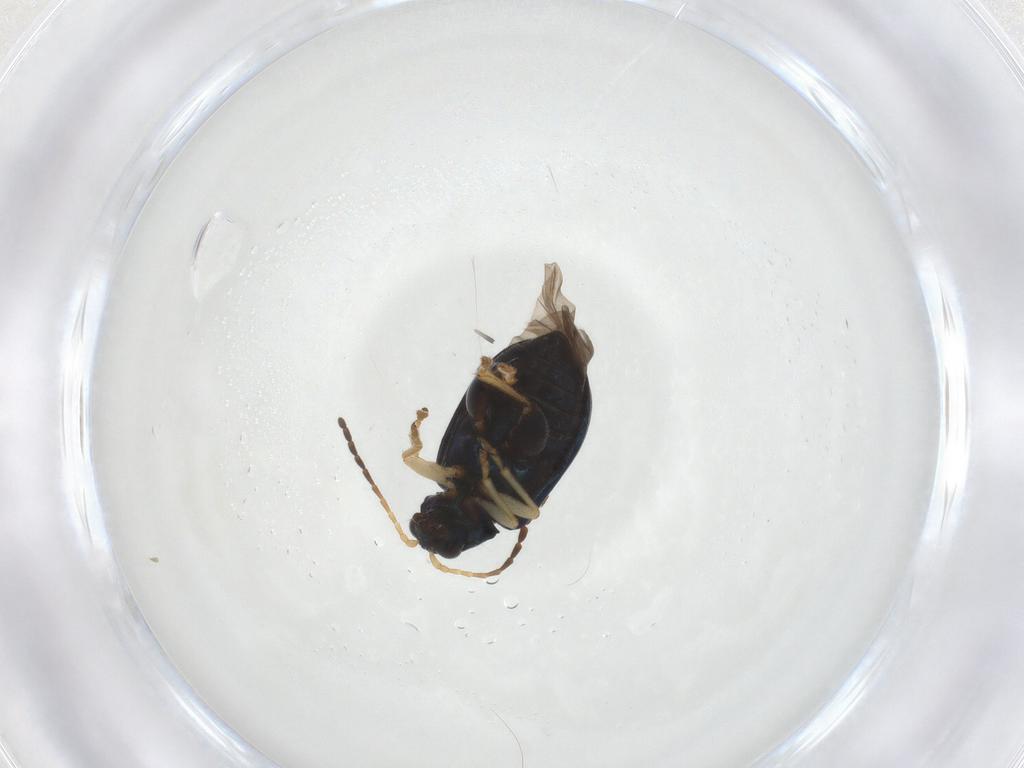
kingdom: Animalia
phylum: Arthropoda
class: Insecta
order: Coleoptera
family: Chrysomelidae
